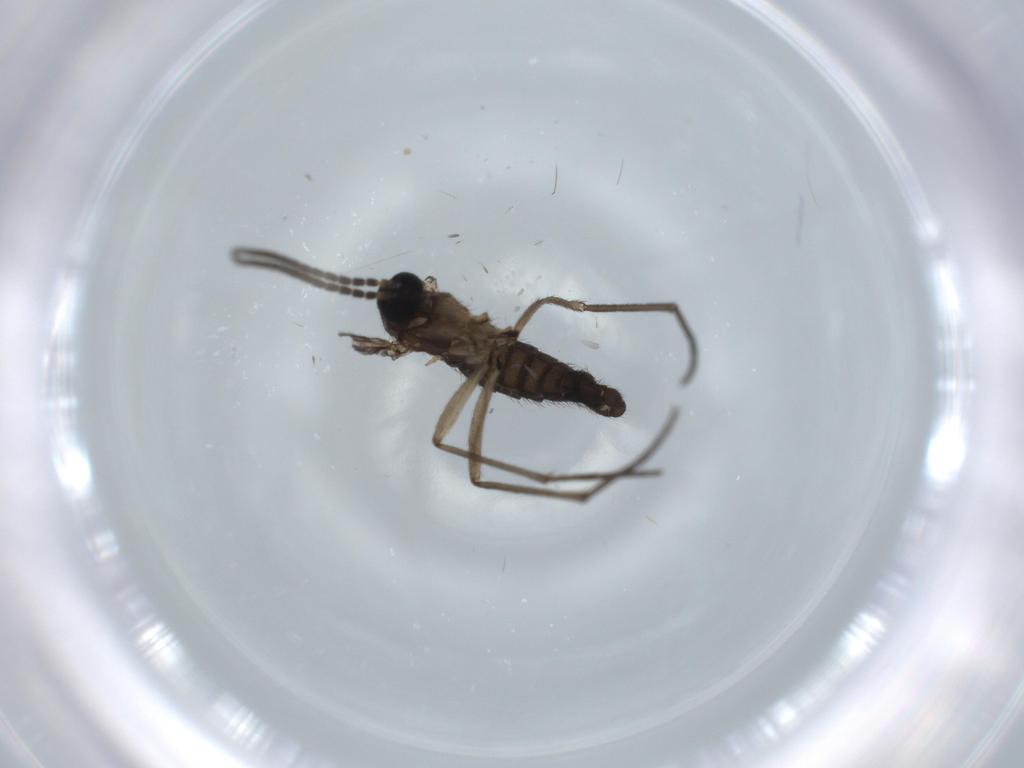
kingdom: Animalia
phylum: Arthropoda
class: Insecta
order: Diptera
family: Sciaridae
